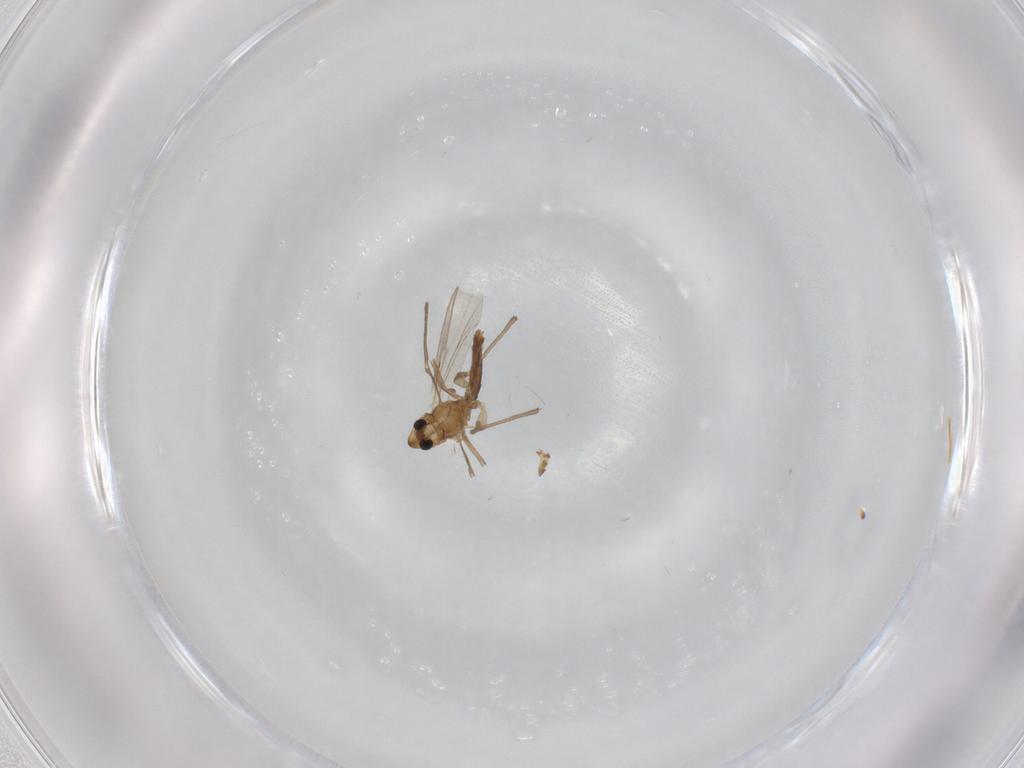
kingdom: Animalia
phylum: Arthropoda
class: Insecta
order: Diptera
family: Chironomidae
